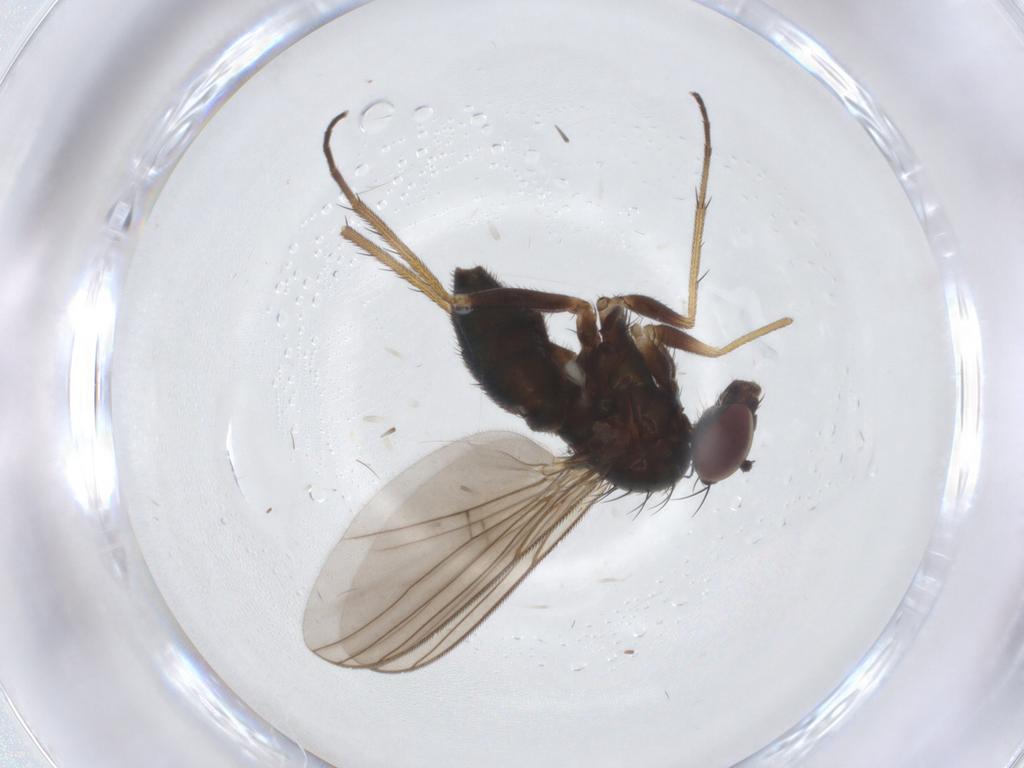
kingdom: Animalia
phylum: Arthropoda
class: Insecta
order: Diptera
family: Dolichopodidae
